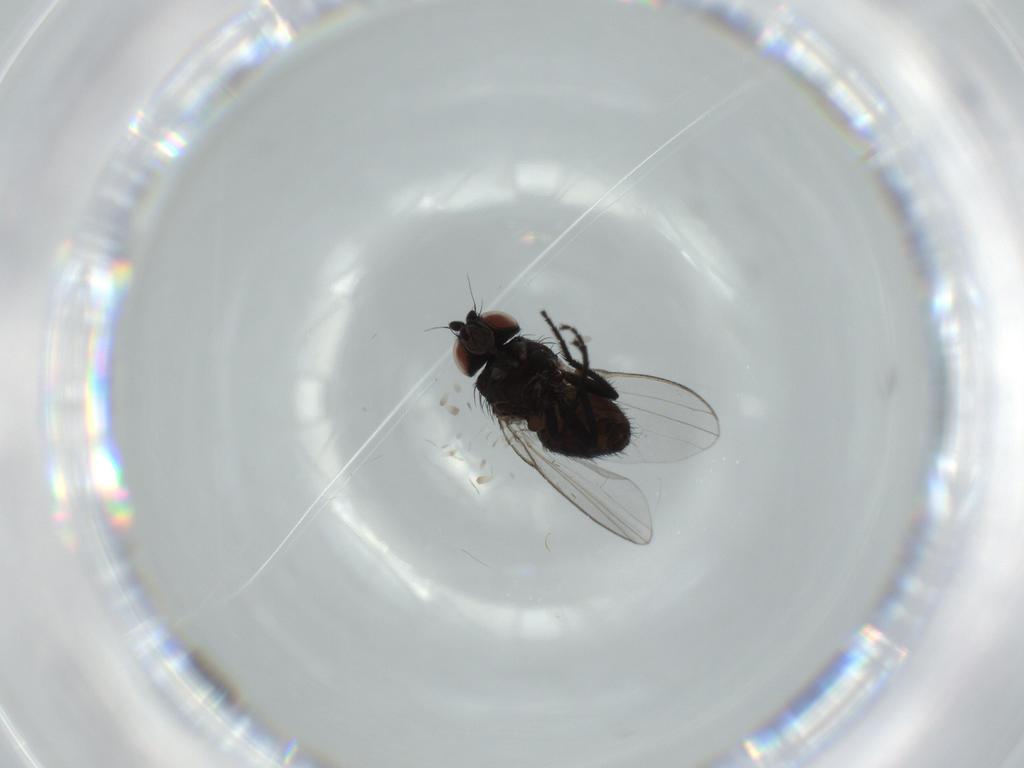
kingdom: Animalia
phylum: Arthropoda
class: Insecta
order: Diptera
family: Milichiidae
